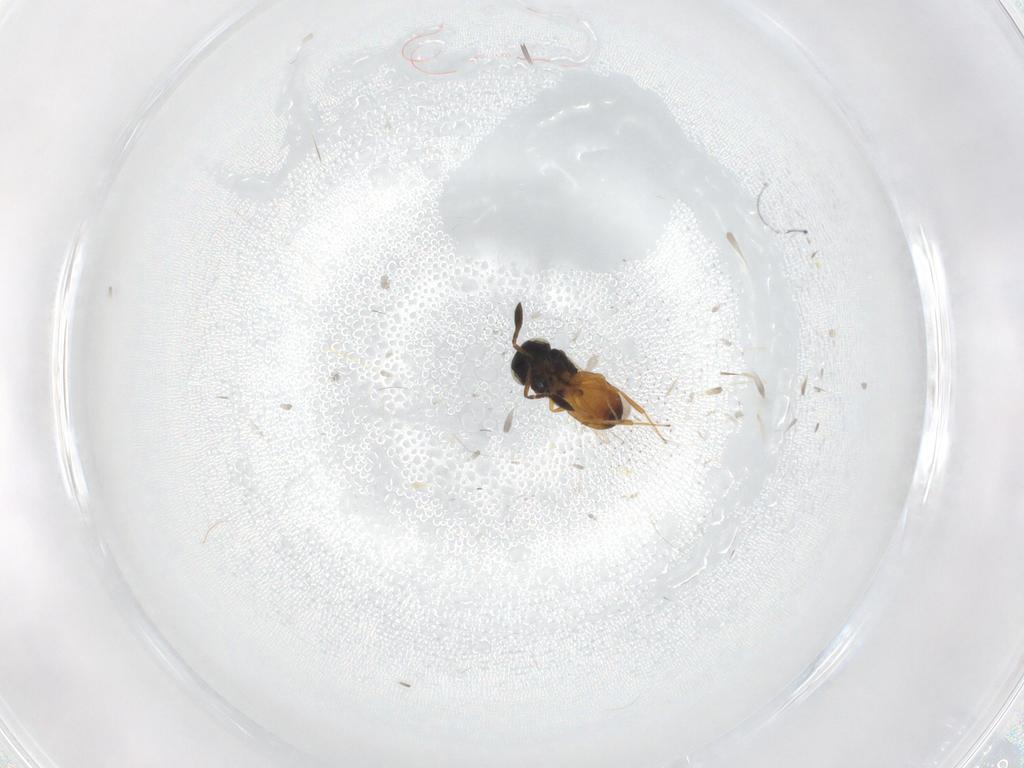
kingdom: Animalia
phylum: Arthropoda
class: Insecta
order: Hymenoptera
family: Scelionidae
